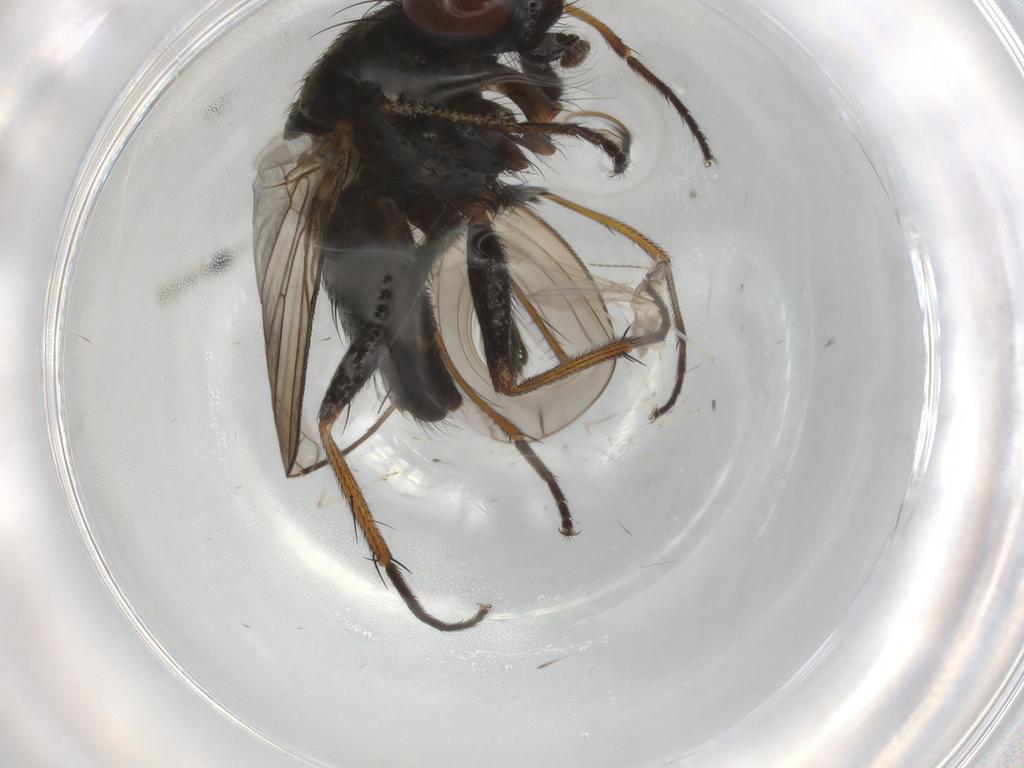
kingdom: Animalia
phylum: Arthropoda
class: Insecta
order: Diptera
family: Muscidae
